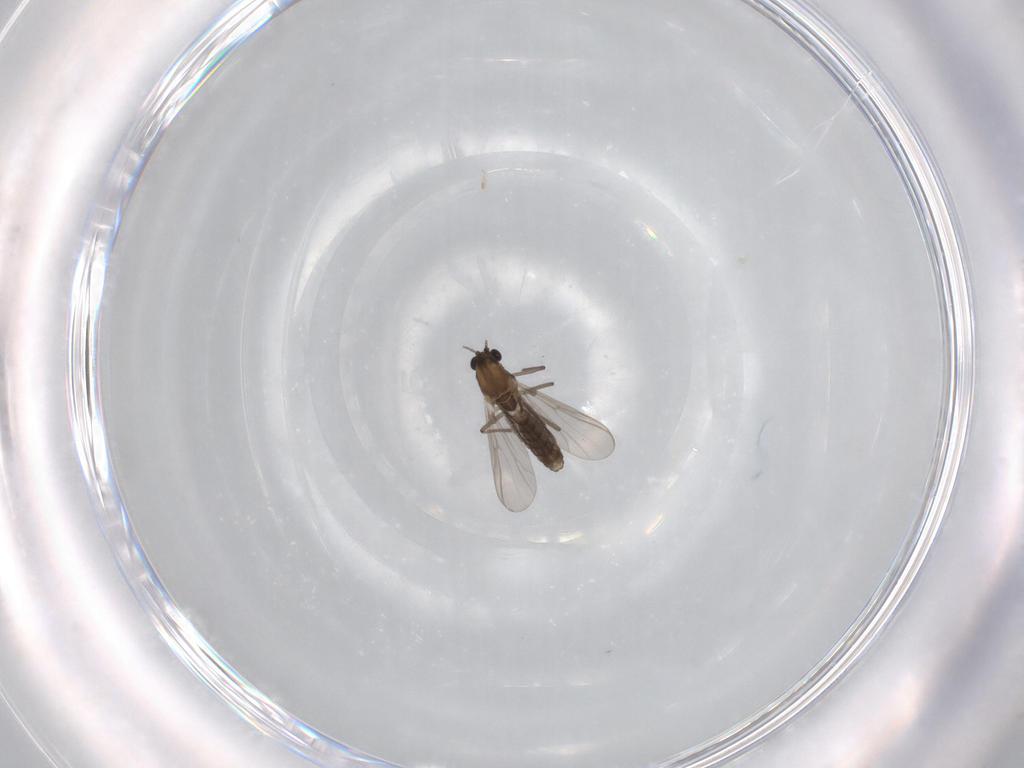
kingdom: Animalia
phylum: Arthropoda
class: Insecta
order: Diptera
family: Chironomidae
